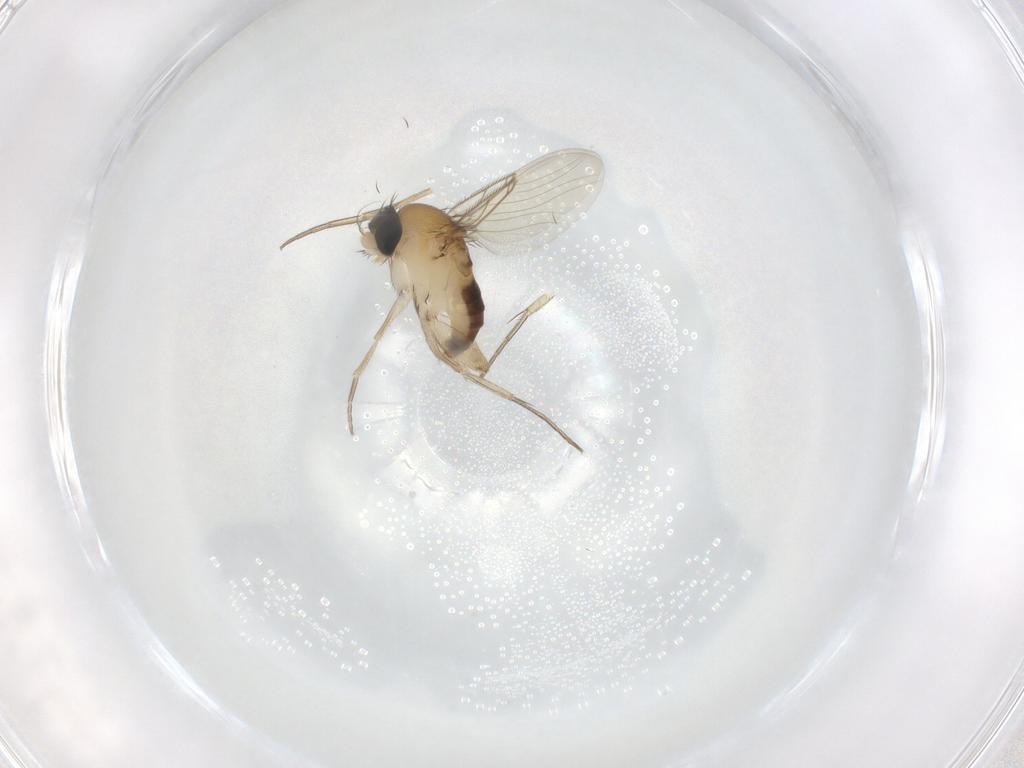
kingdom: Animalia
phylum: Arthropoda
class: Insecta
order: Diptera
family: Phoridae
